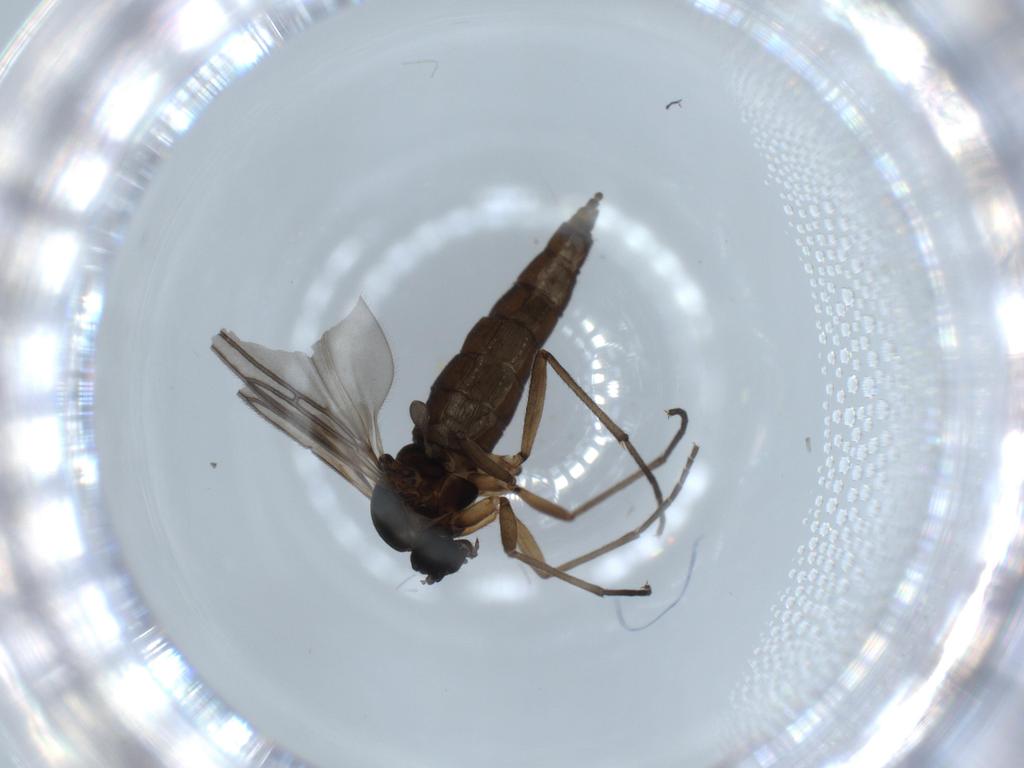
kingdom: Animalia
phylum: Arthropoda
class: Insecta
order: Diptera
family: Sciaridae
